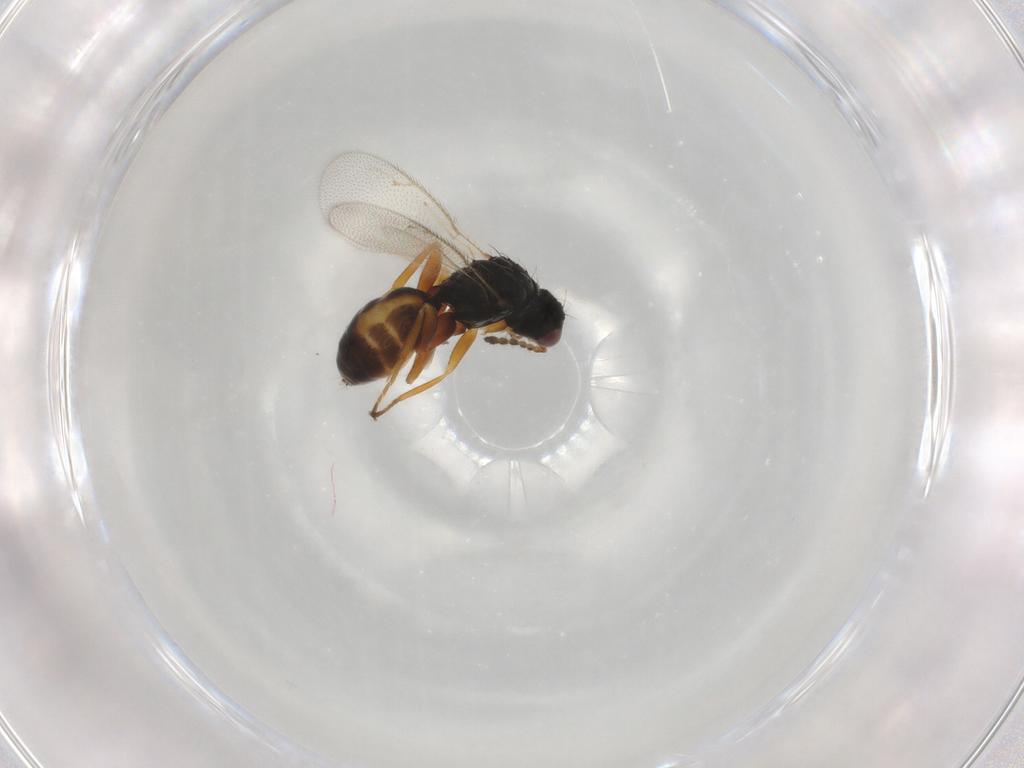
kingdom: Animalia
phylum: Arthropoda
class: Insecta
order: Hymenoptera
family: Eulophidae
